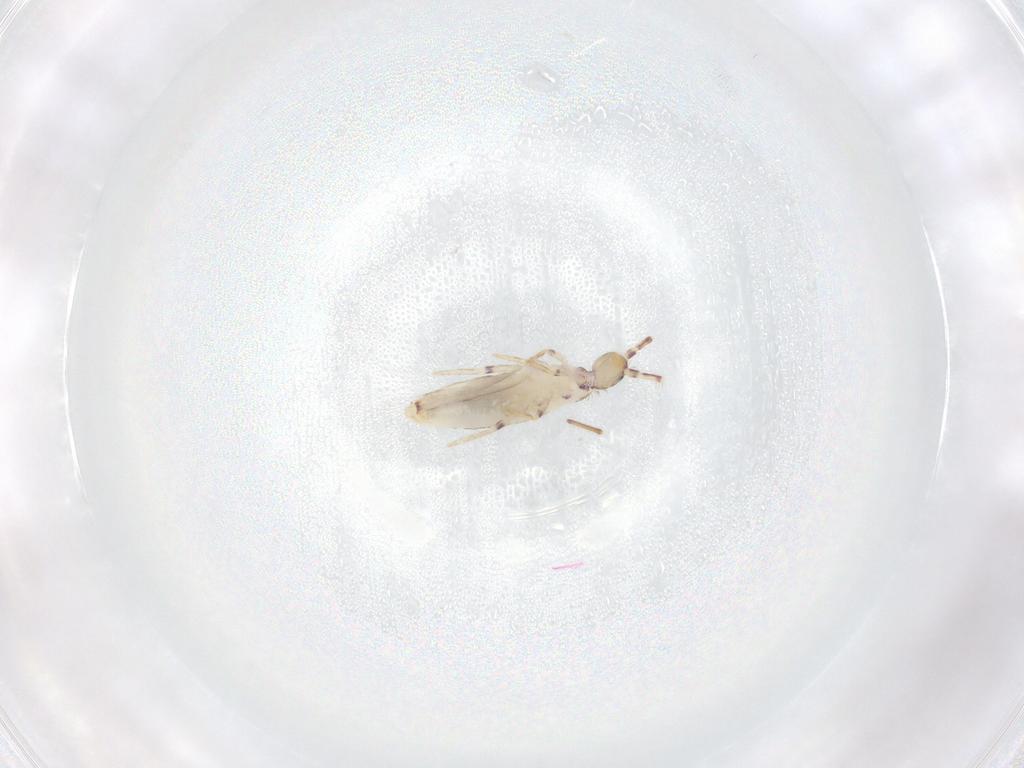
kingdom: Animalia
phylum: Arthropoda
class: Collembola
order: Entomobryomorpha
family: Entomobryidae
